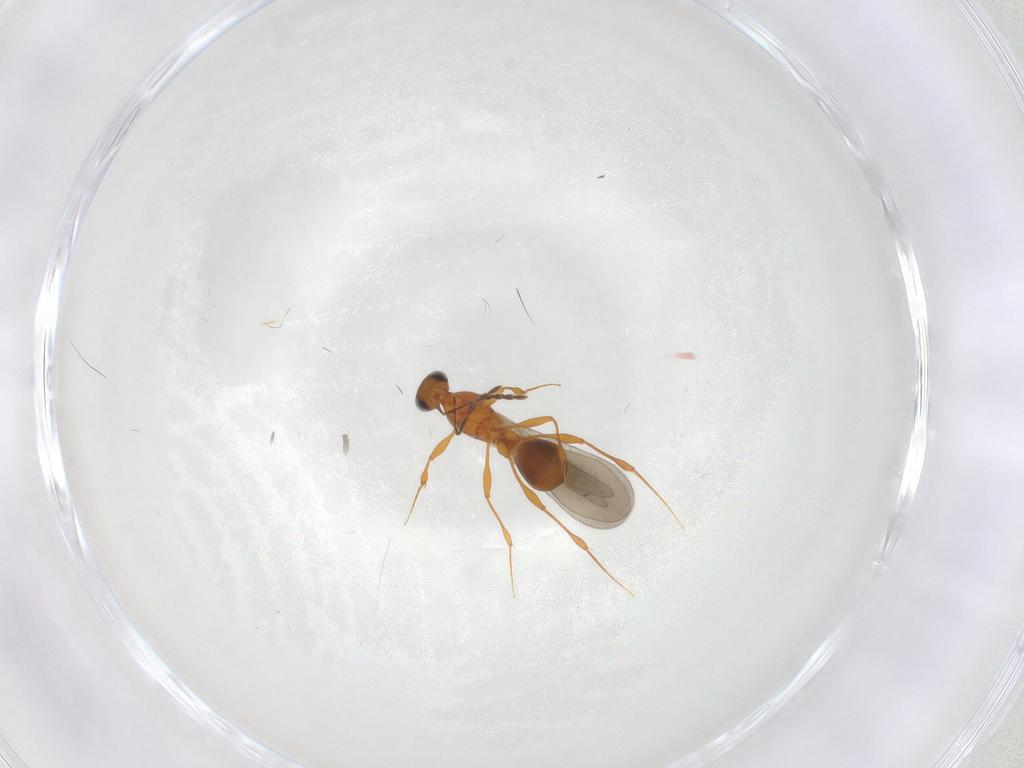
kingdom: Animalia
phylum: Arthropoda
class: Insecta
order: Hymenoptera
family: Platygastridae
